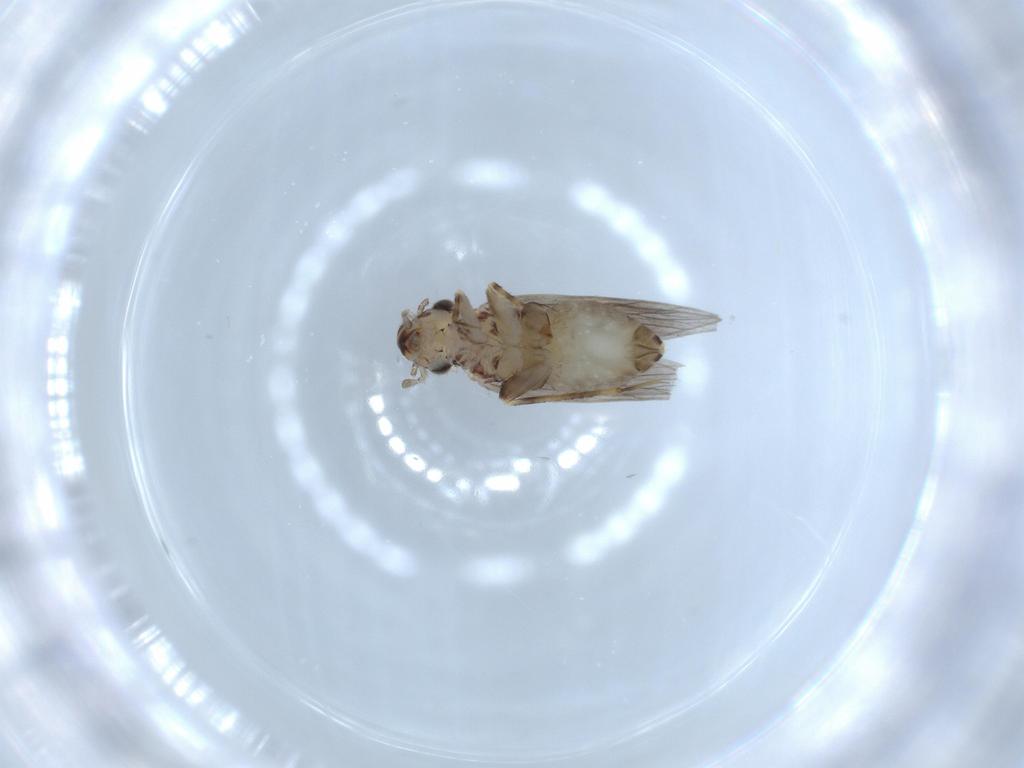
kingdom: Animalia
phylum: Arthropoda
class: Insecta
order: Psocodea
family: Lepidopsocidae
